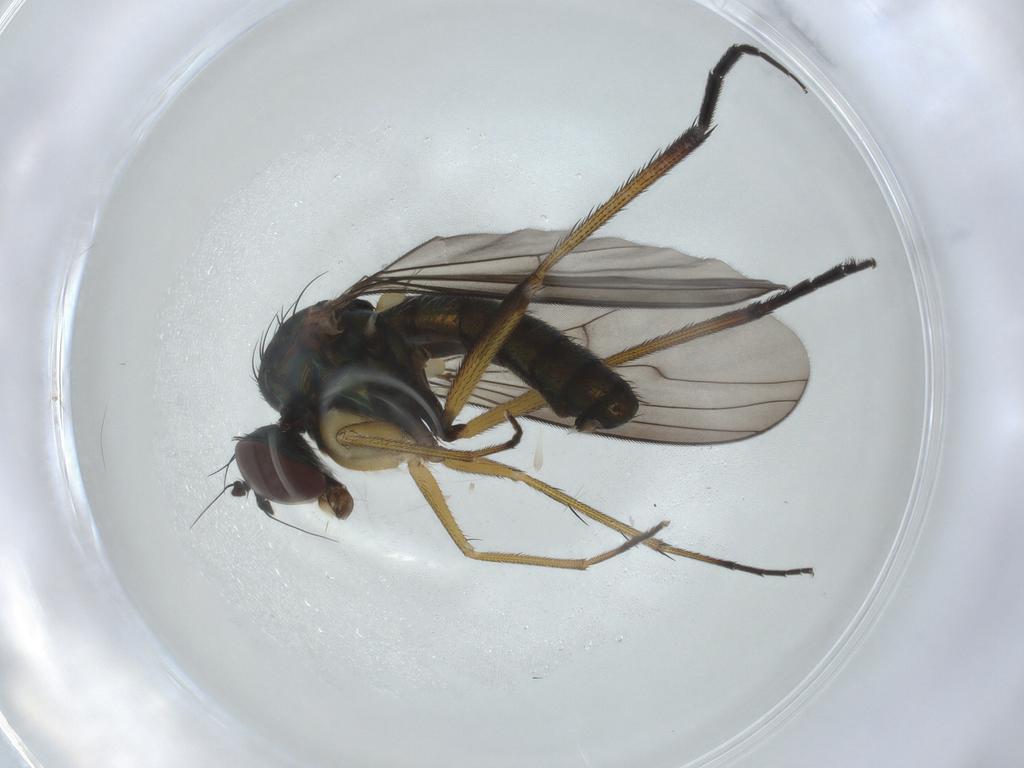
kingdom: Animalia
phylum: Arthropoda
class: Insecta
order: Diptera
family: Dolichopodidae
